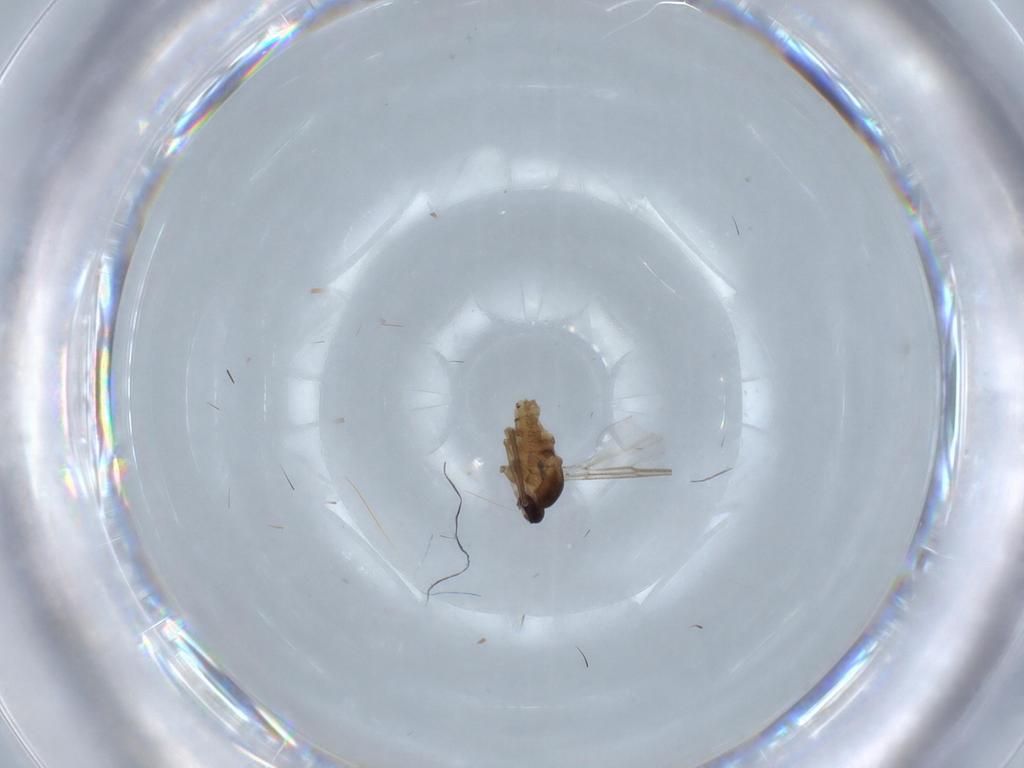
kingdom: Animalia
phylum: Arthropoda
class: Insecta
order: Diptera
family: Cecidomyiidae
